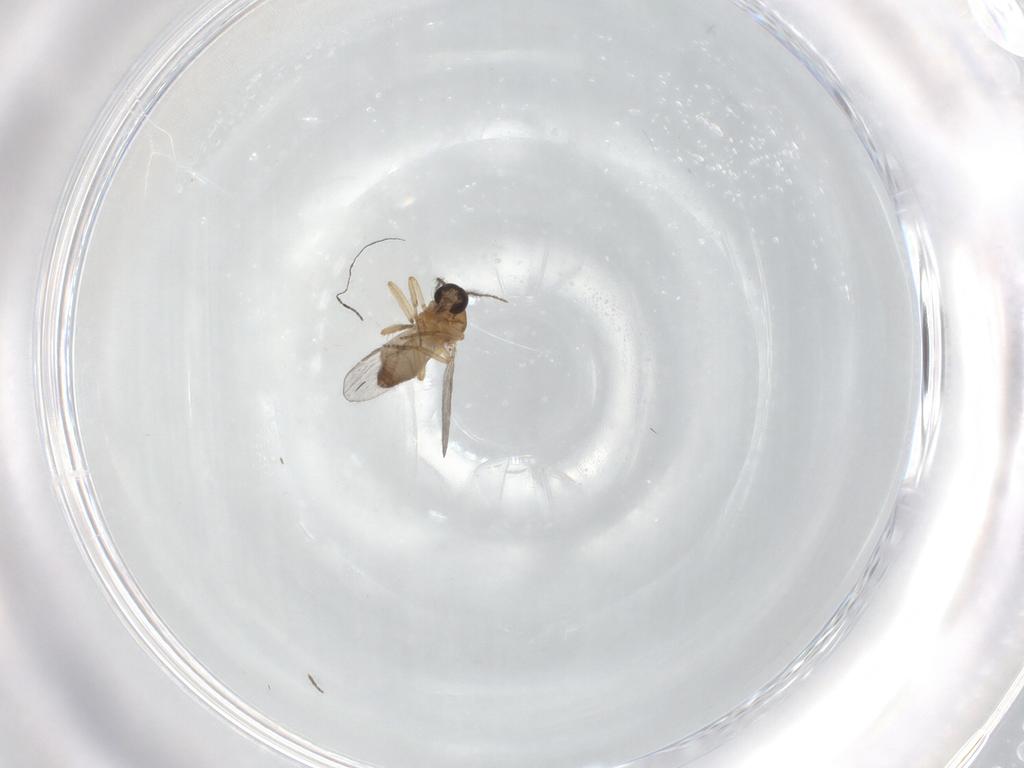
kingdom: Animalia
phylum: Arthropoda
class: Insecta
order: Diptera
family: Ceratopogonidae
